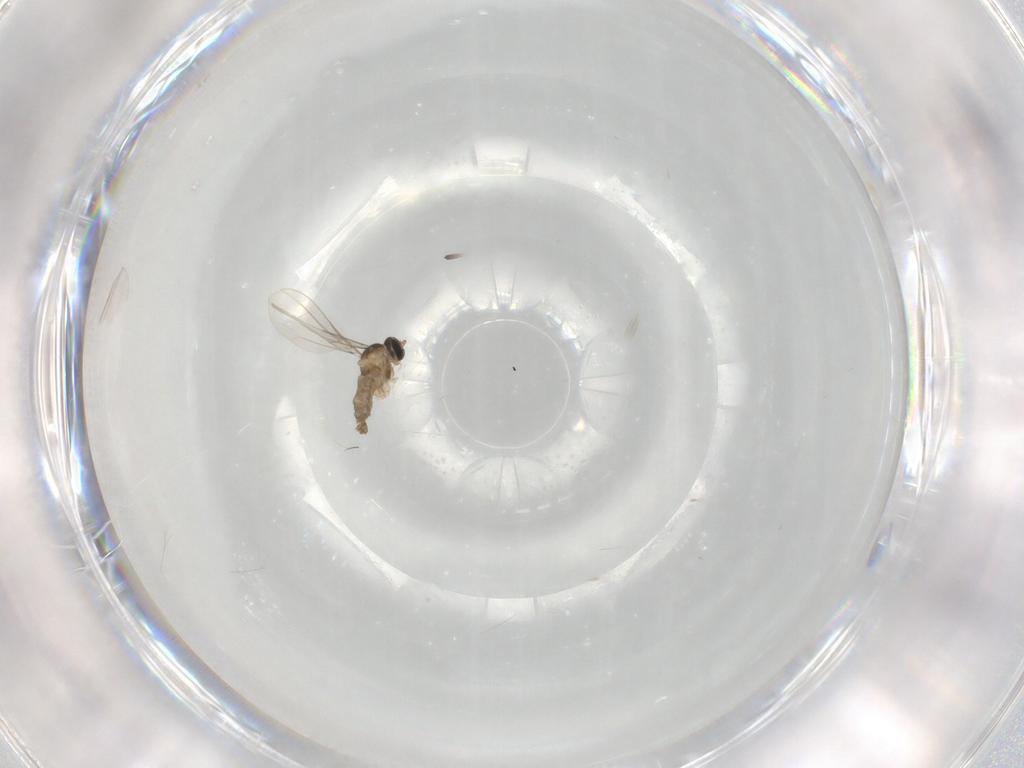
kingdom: Animalia
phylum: Arthropoda
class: Insecta
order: Diptera
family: Cecidomyiidae
